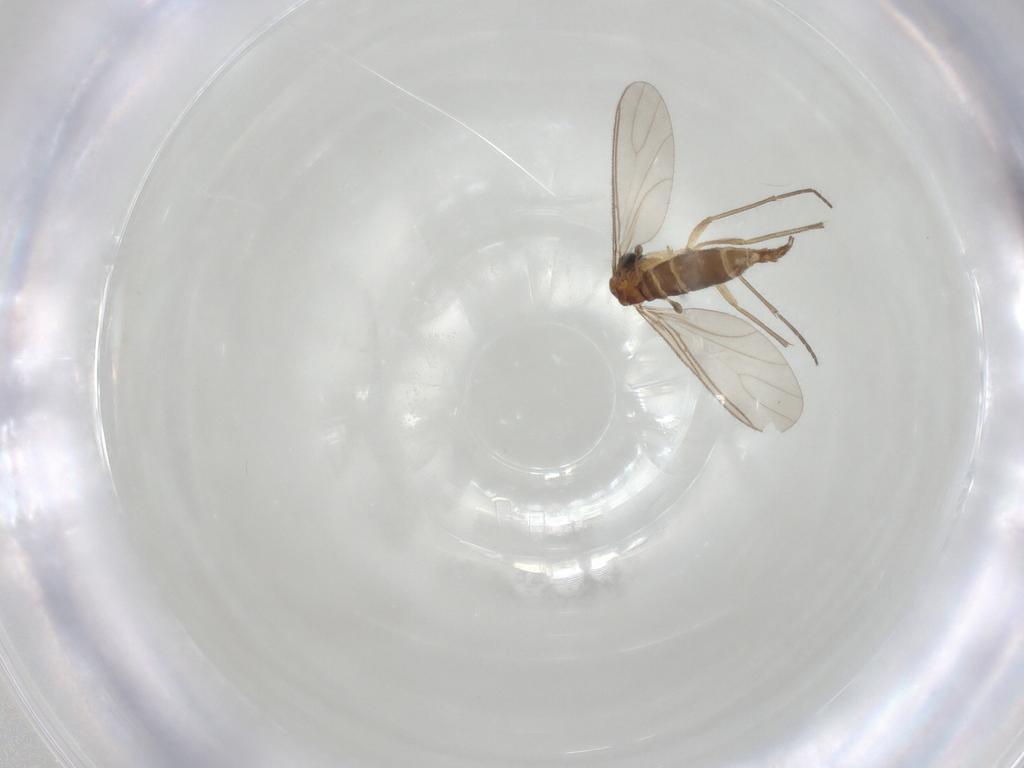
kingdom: Animalia
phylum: Arthropoda
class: Insecta
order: Diptera
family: Sciaridae
